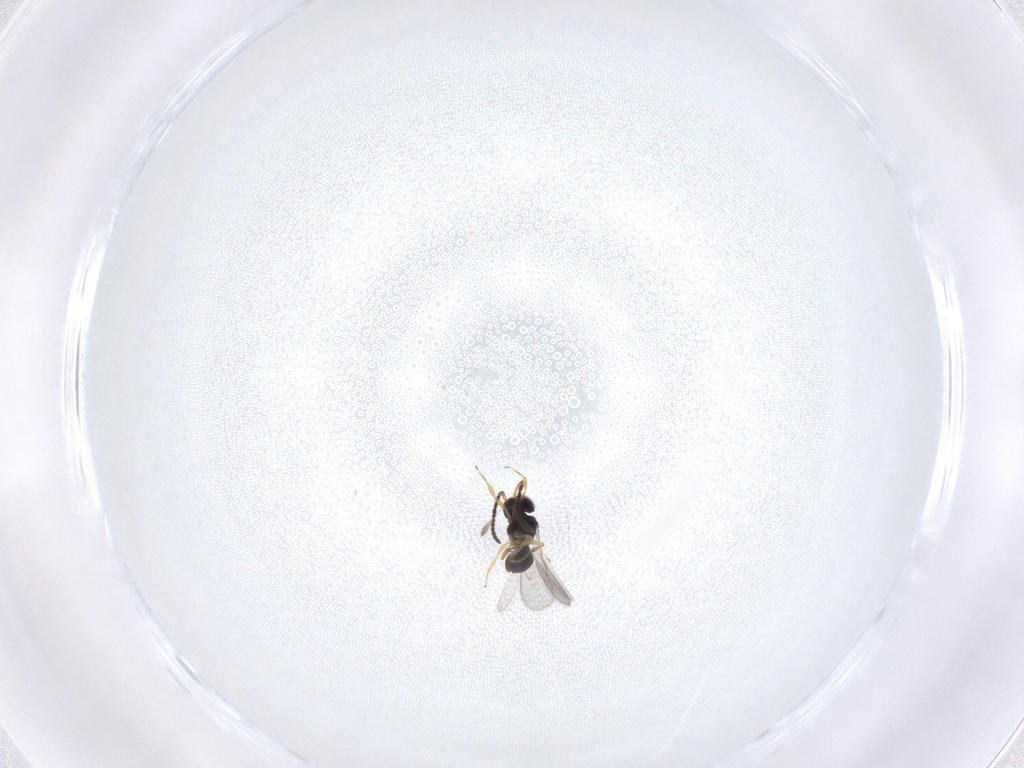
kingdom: Animalia
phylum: Arthropoda
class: Insecta
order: Hymenoptera
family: Scelionidae
